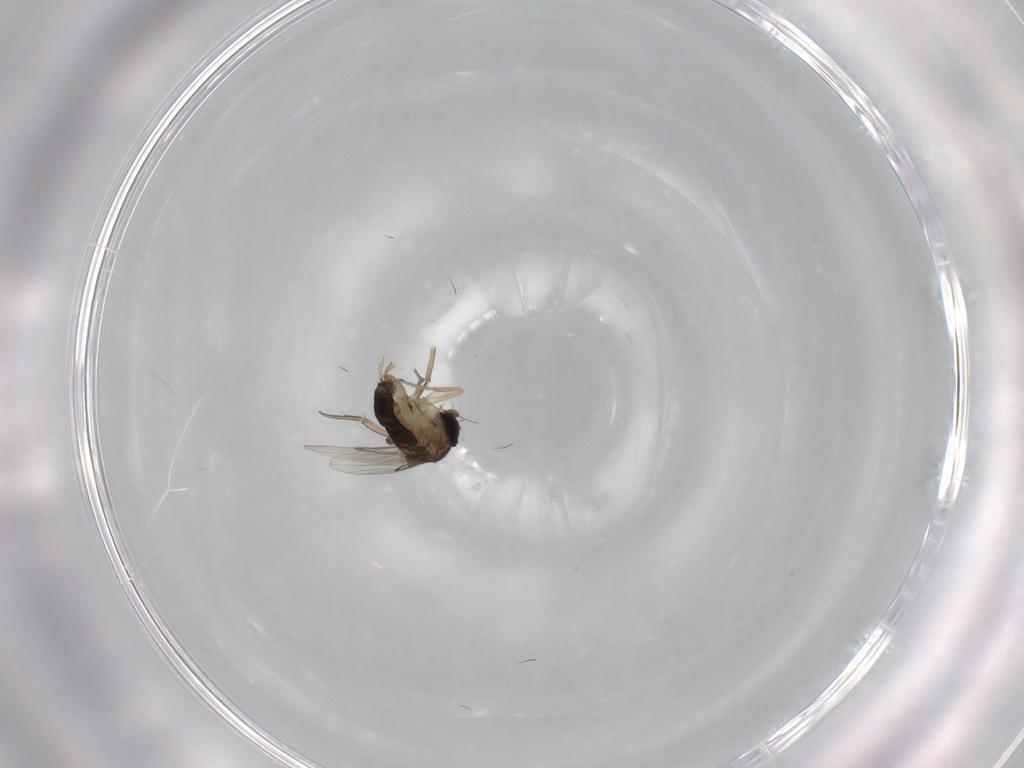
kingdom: Animalia
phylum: Arthropoda
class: Insecta
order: Diptera
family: Phoridae
